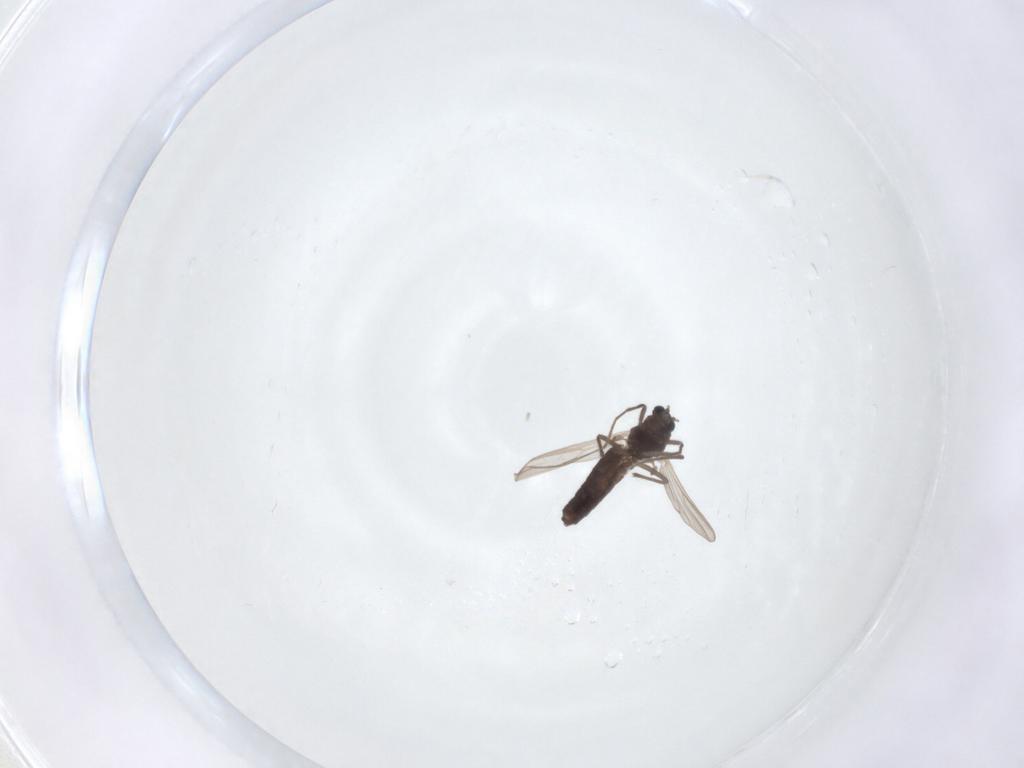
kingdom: Animalia
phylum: Arthropoda
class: Insecta
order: Diptera
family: Chironomidae
